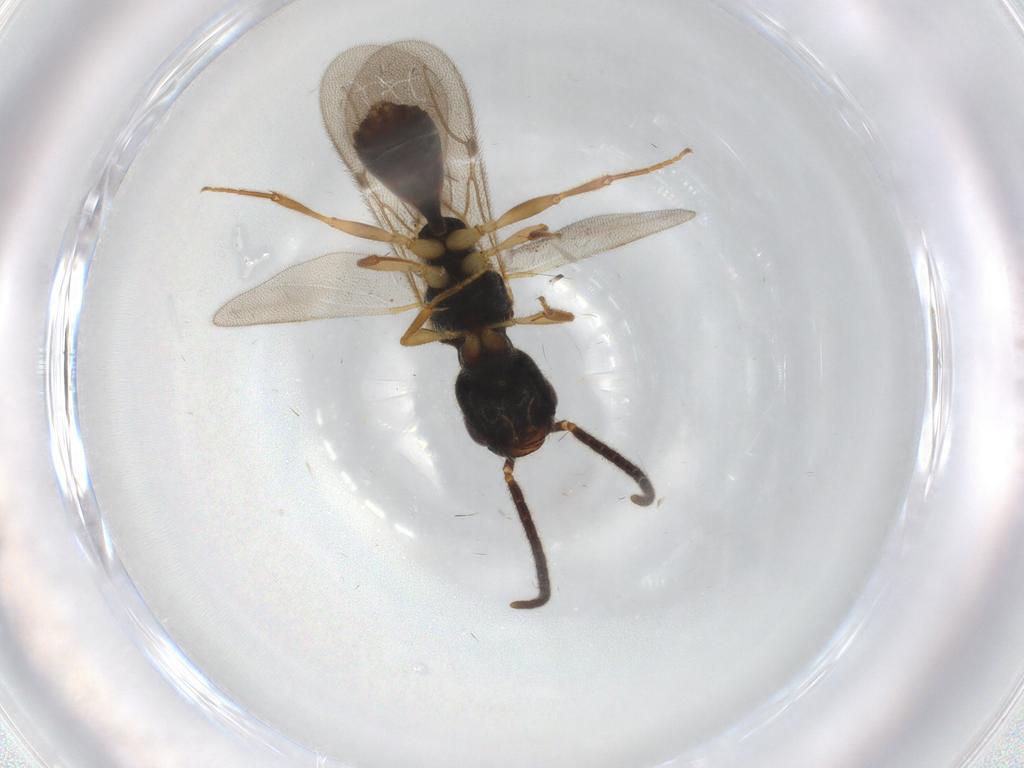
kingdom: Animalia
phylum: Arthropoda
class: Insecta
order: Hymenoptera
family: Bethylidae
